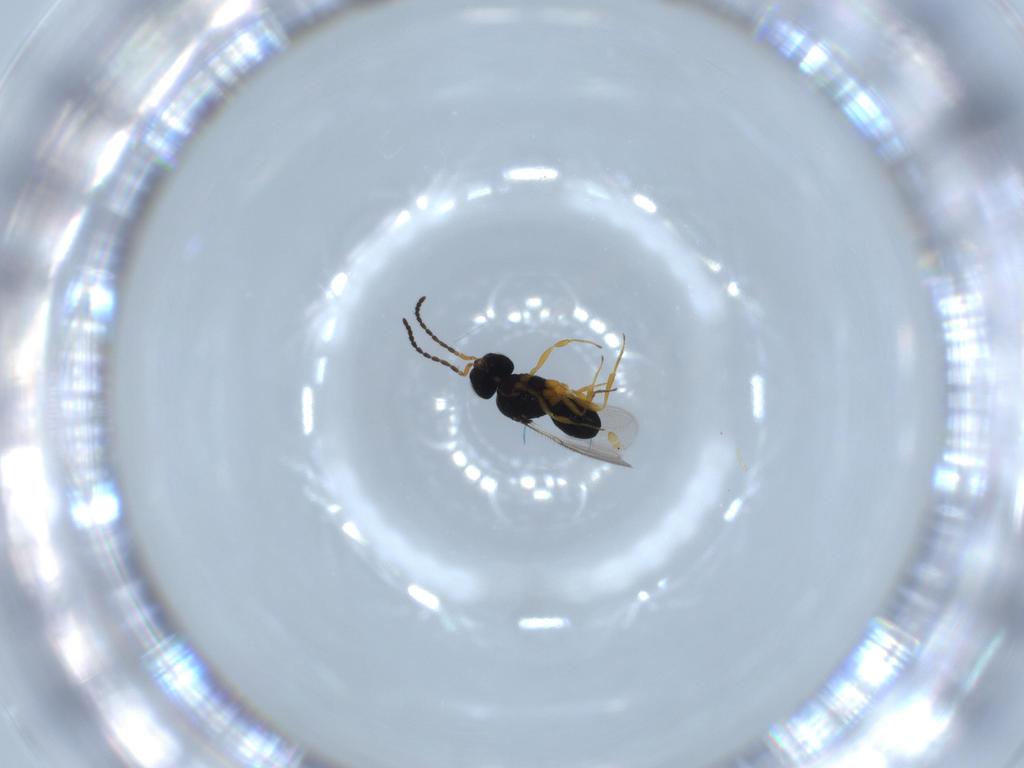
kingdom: Animalia
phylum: Arthropoda
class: Insecta
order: Hymenoptera
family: Scelionidae
